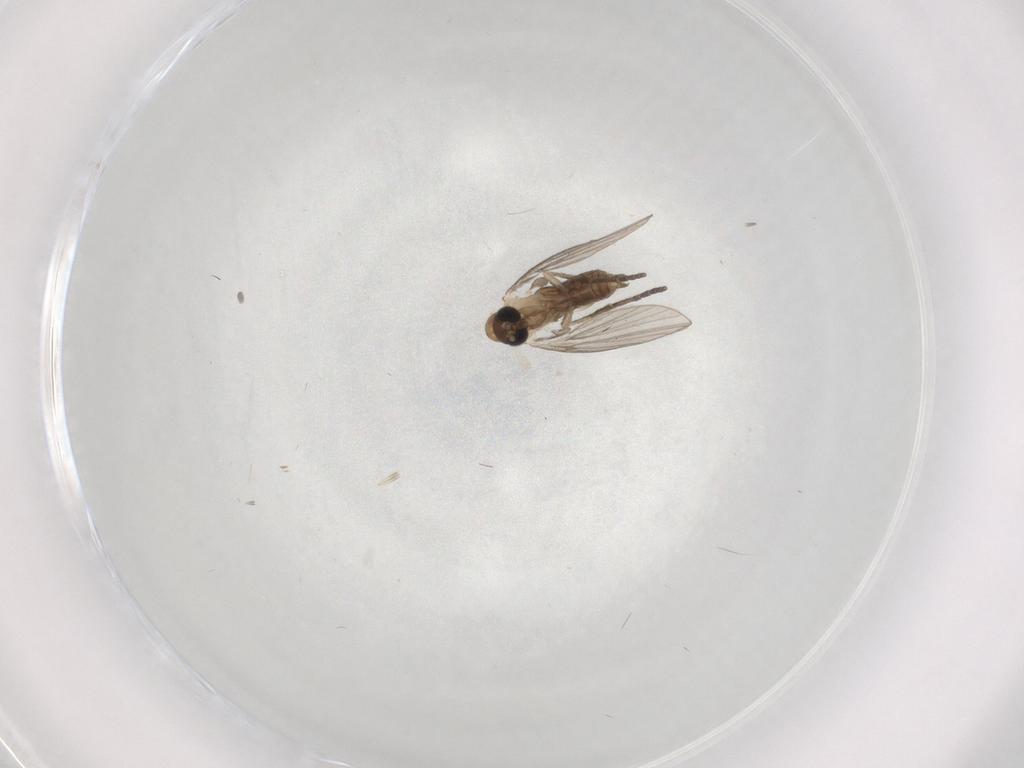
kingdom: Animalia
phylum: Arthropoda
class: Insecta
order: Diptera
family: Psychodidae
